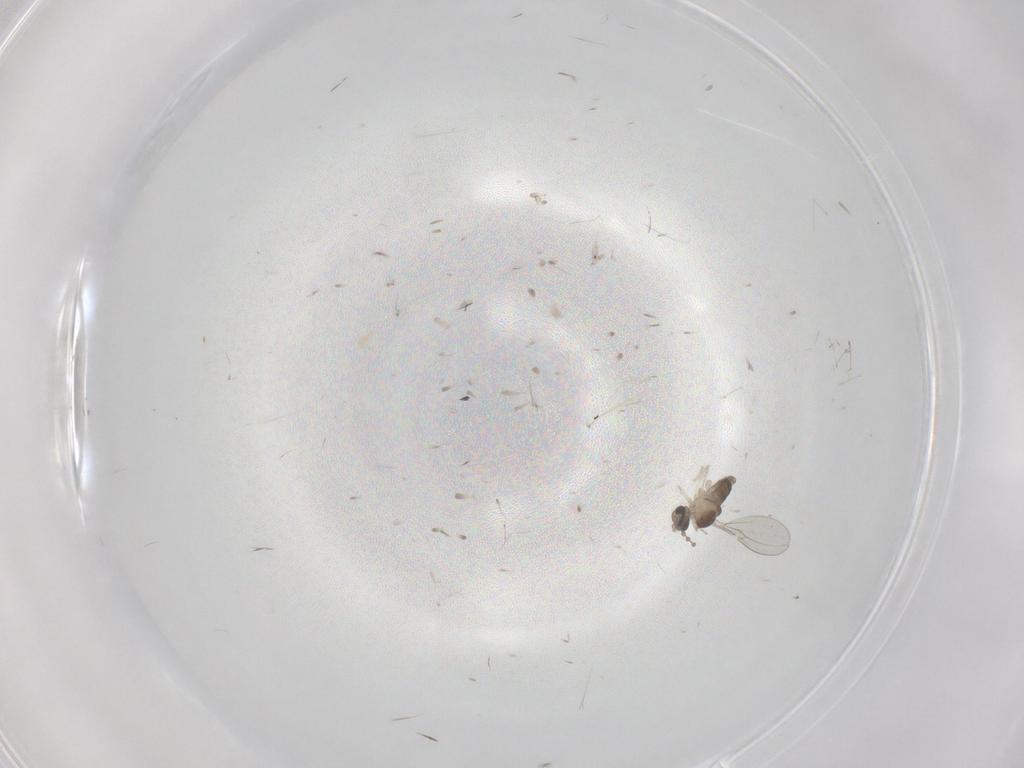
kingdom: Animalia
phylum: Arthropoda
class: Insecta
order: Diptera
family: Cecidomyiidae
